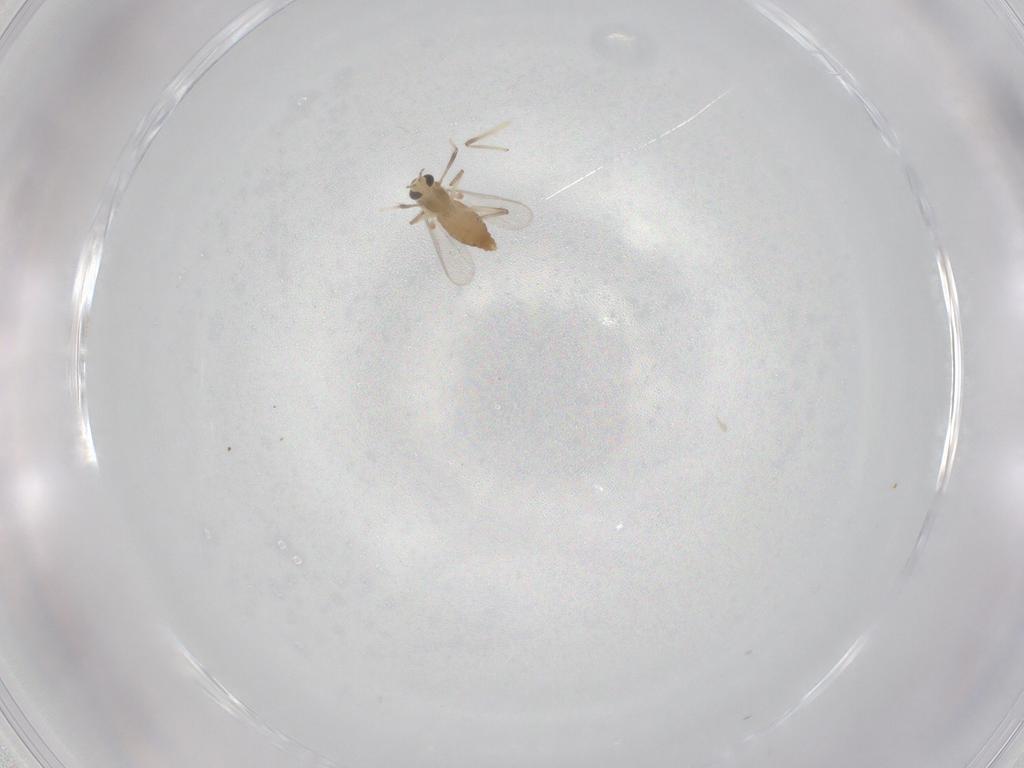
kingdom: Animalia
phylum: Arthropoda
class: Insecta
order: Diptera
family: Chironomidae
